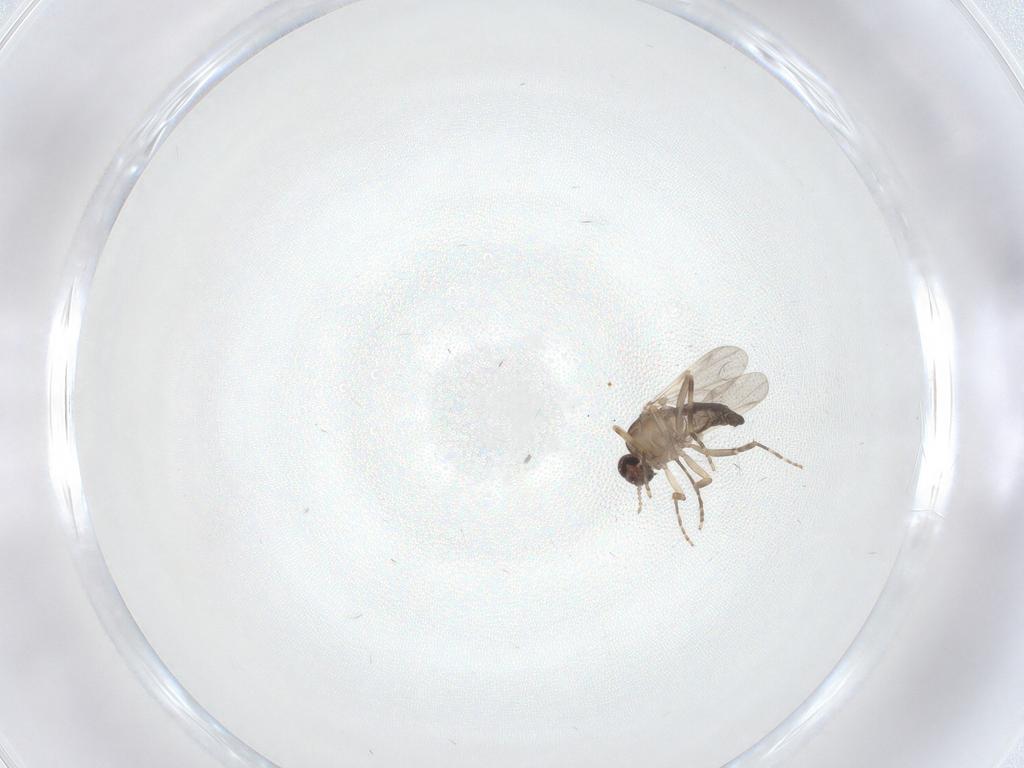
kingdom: Animalia
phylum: Arthropoda
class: Insecta
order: Diptera
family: Ceratopogonidae
